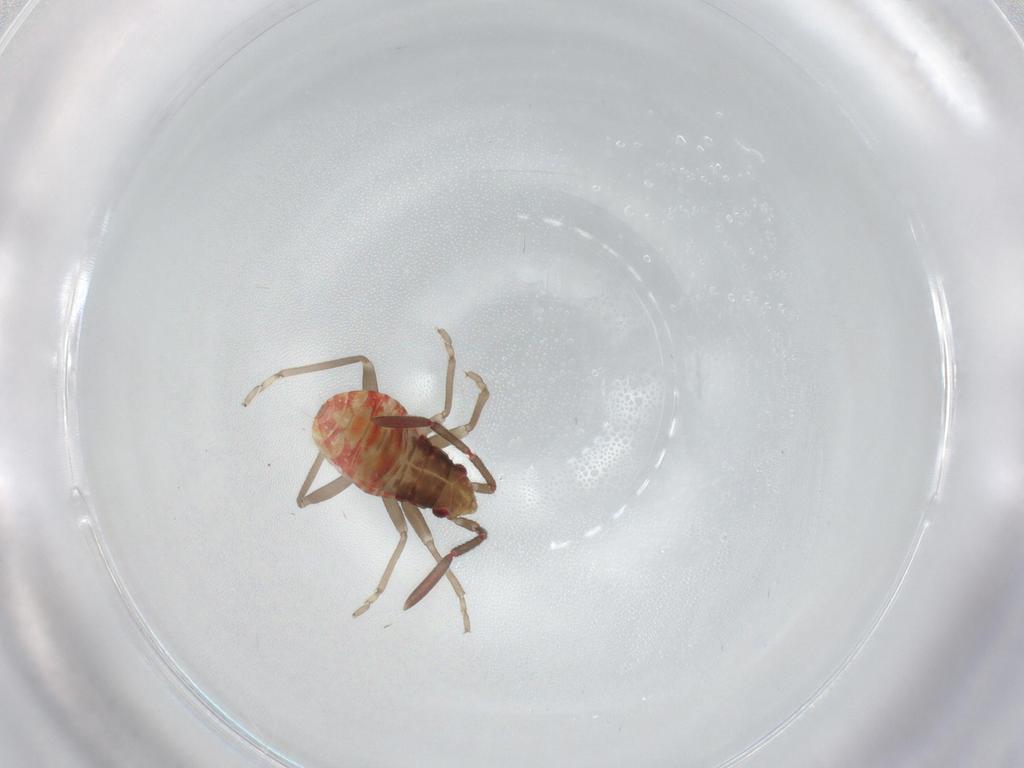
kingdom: Animalia
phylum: Arthropoda
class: Insecta
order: Hemiptera
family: Rhyparochromidae
